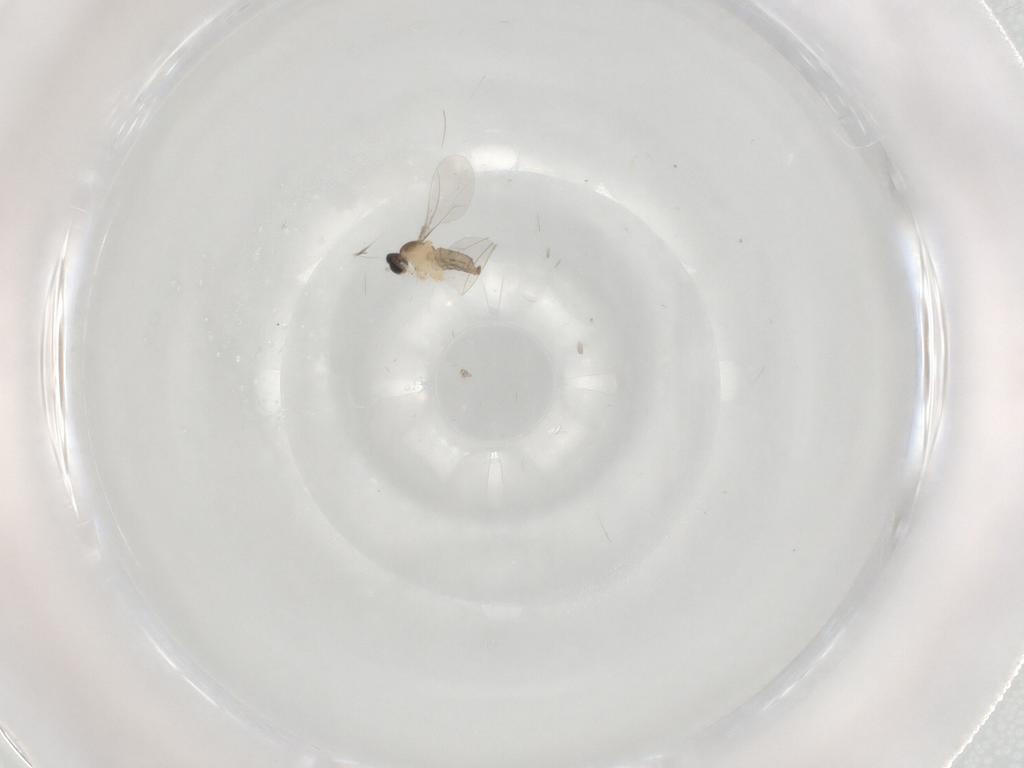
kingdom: Animalia
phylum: Arthropoda
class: Insecta
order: Diptera
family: Cecidomyiidae
